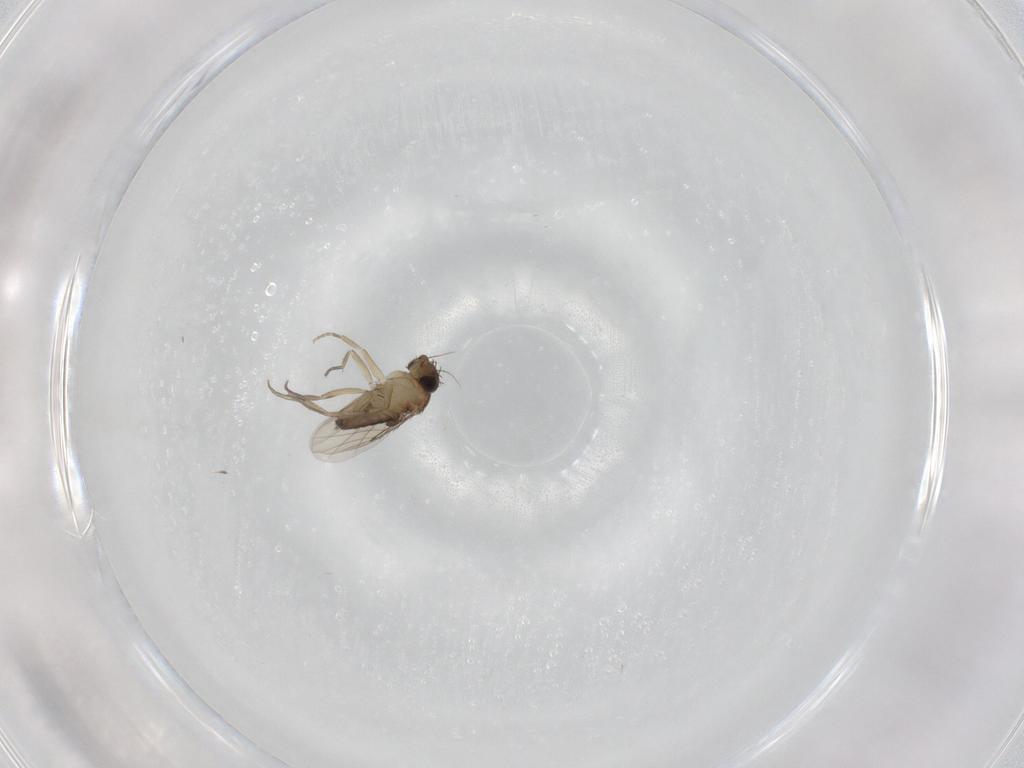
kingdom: Animalia
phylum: Arthropoda
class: Insecta
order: Diptera
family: Phoridae
